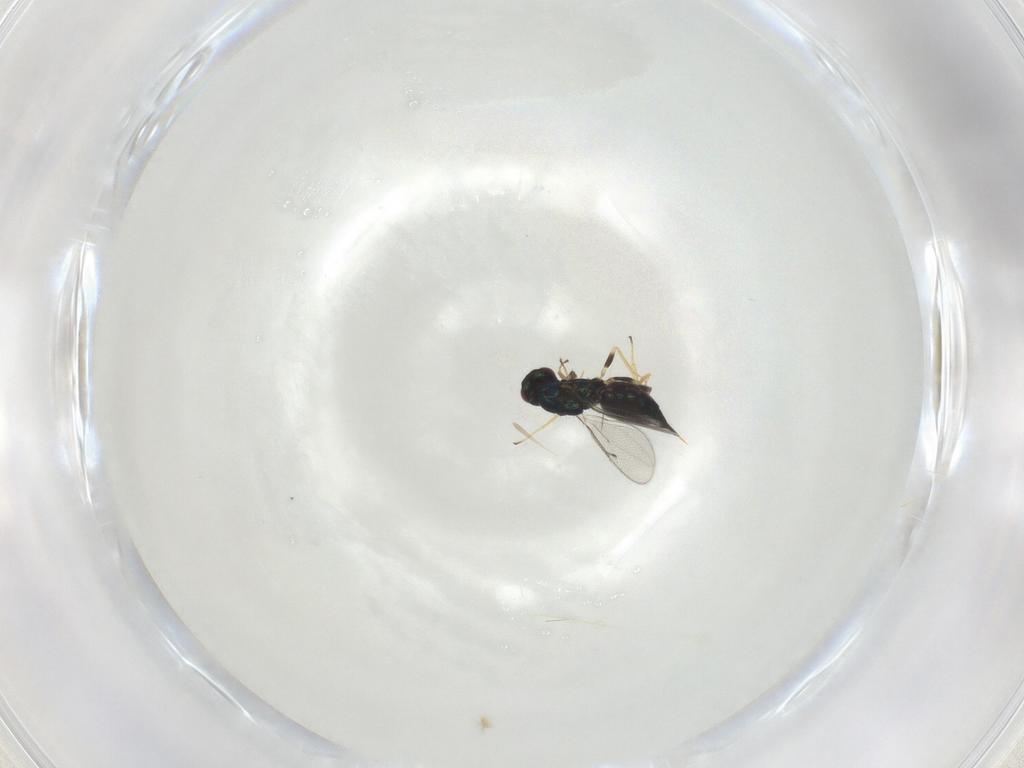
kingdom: Animalia
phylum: Arthropoda
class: Insecta
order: Hymenoptera
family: Eulophidae
